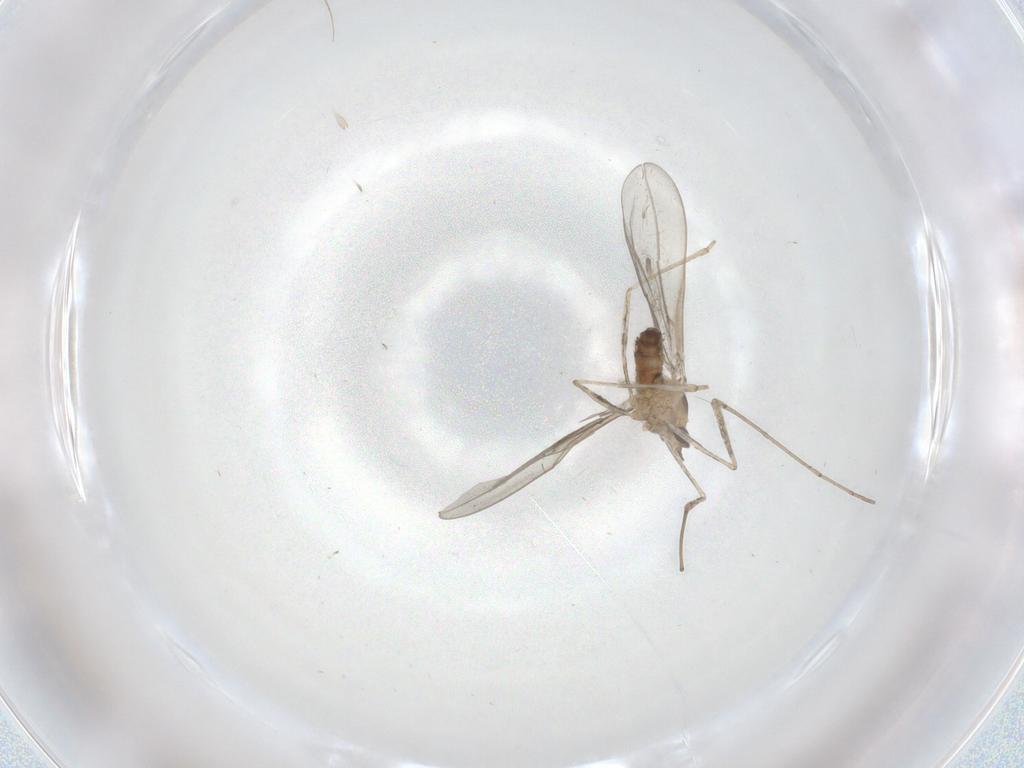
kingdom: Animalia
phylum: Arthropoda
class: Insecta
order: Diptera
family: Cecidomyiidae
